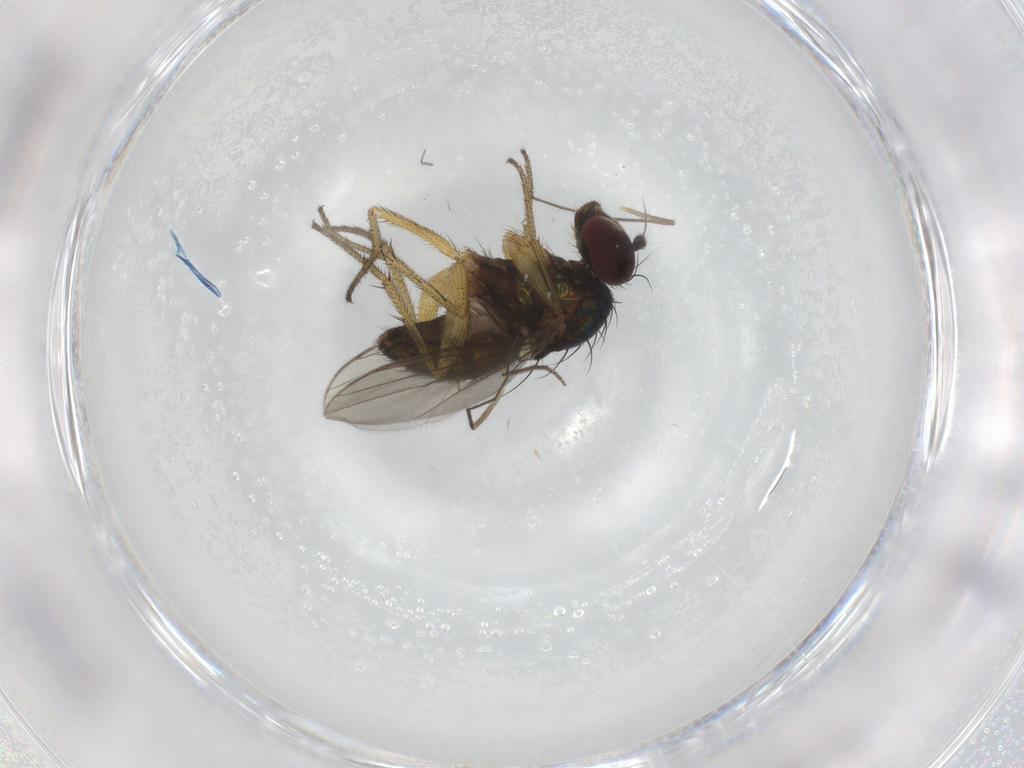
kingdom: Animalia
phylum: Arthropoda
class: Insecta
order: Diptera
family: Chironomidae
